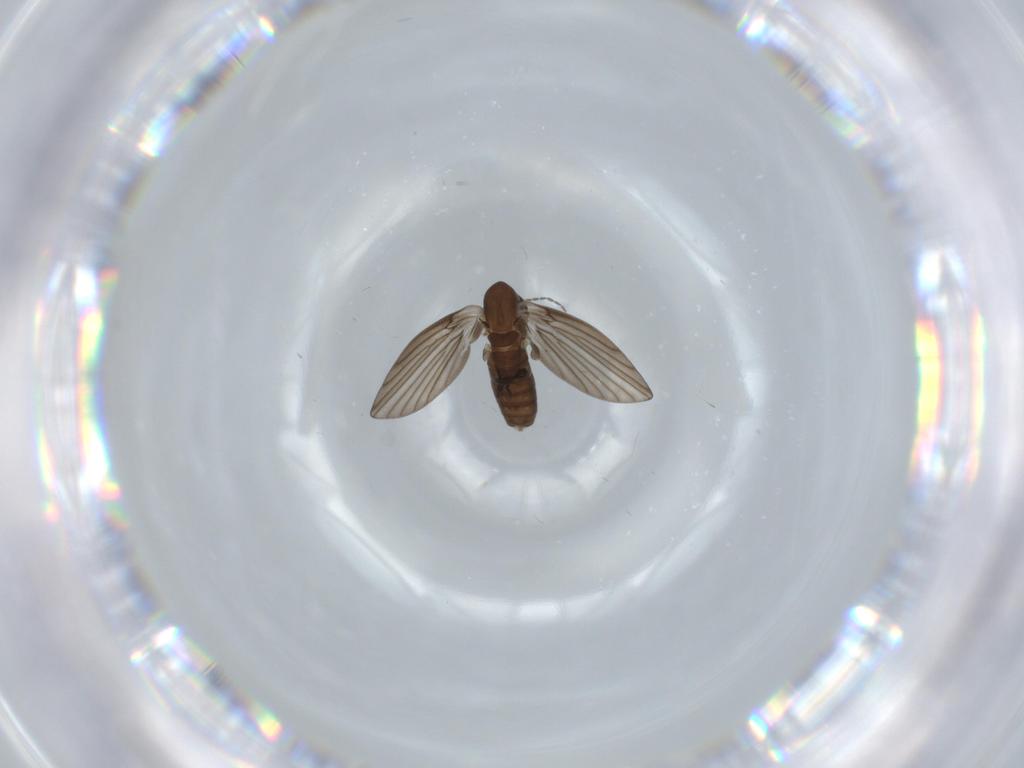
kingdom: Animalia
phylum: Arthropoda
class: Insecta
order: Diptera
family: Psychodidae
